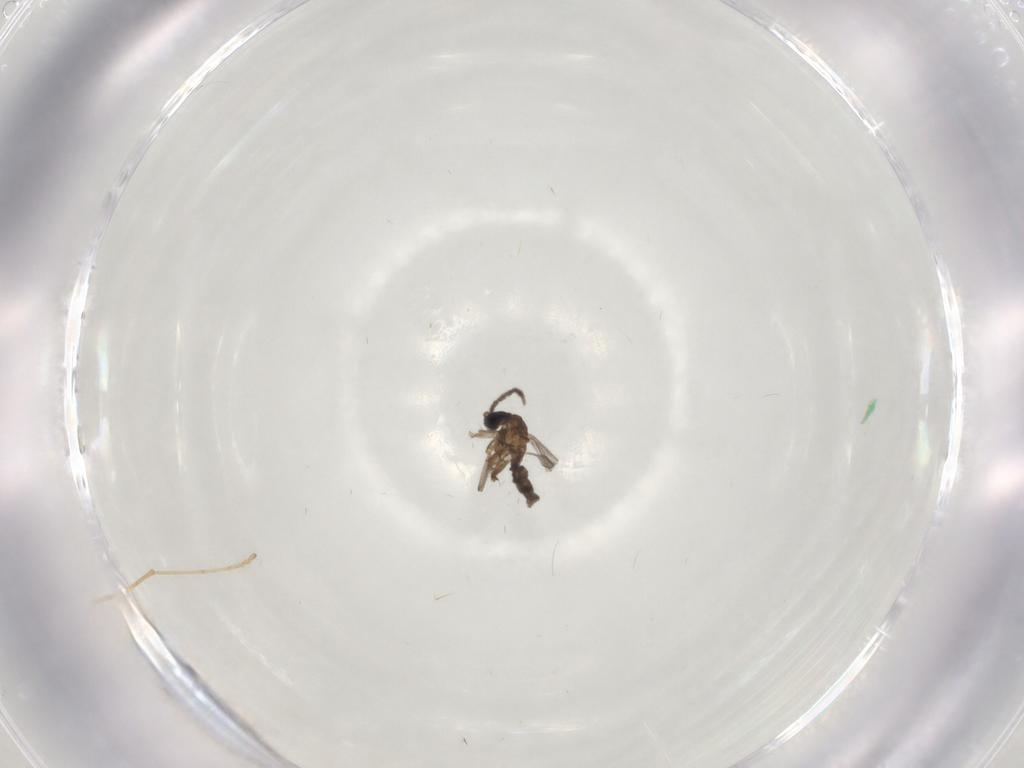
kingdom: Animalia
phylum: Arthropoda
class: Insecta
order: Diptera
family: Sciaridae
